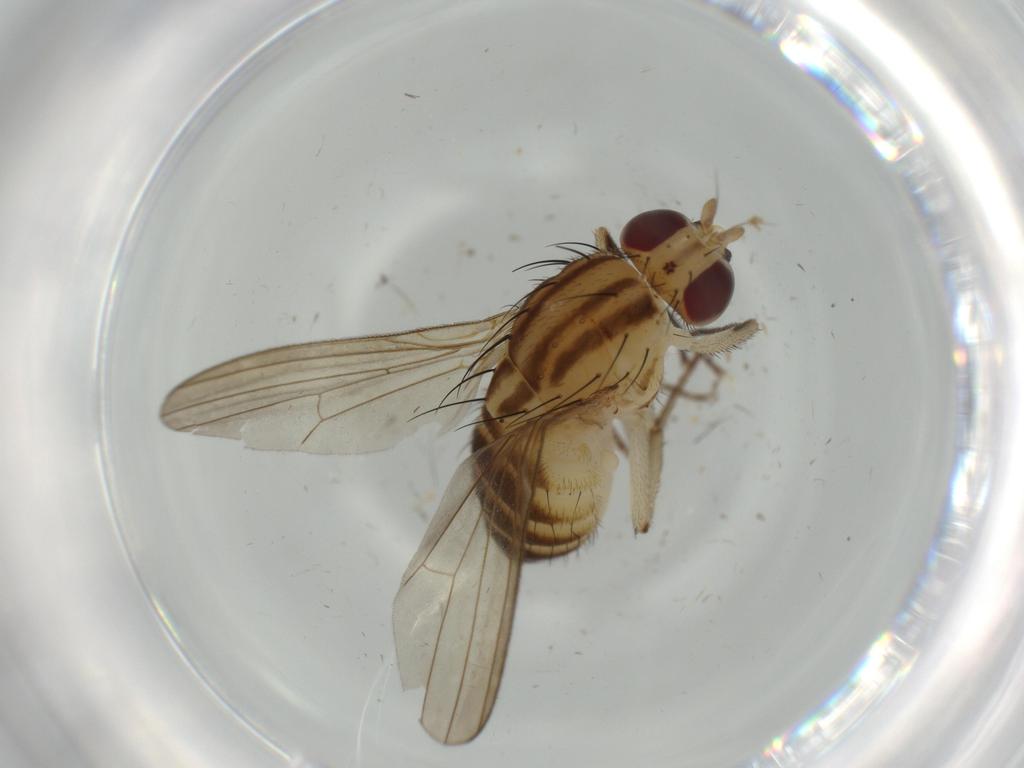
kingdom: Animalia
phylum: Arthropoda
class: Insecta
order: Diptera
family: Lauxaniidae
